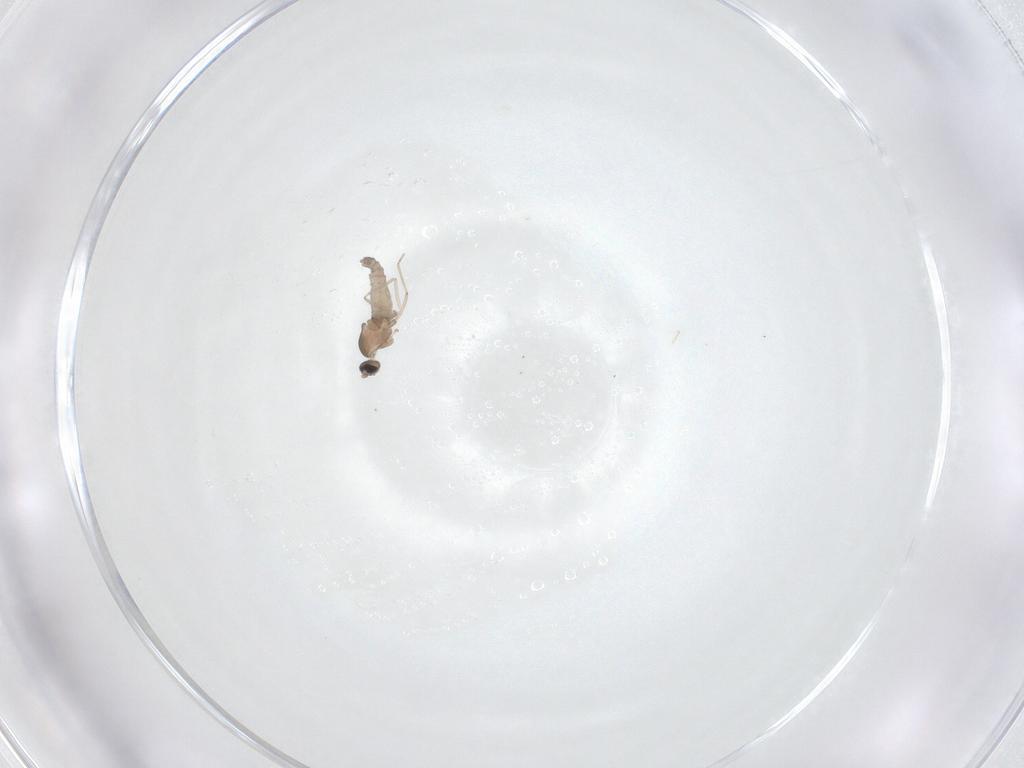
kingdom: Animalia
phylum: Arthropoda
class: Insecta
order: Diptera
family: Cecidomyiidae
